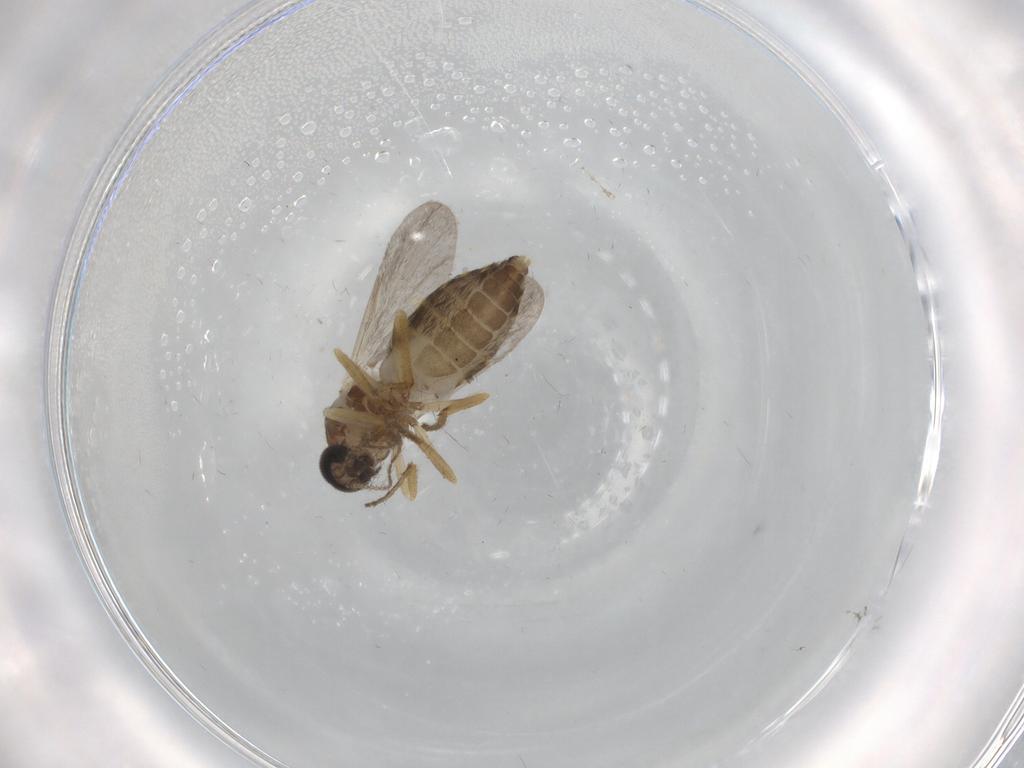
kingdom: Animalia
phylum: Arthropoda
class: Insecta
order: Diptera
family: Ceratopogonidae
